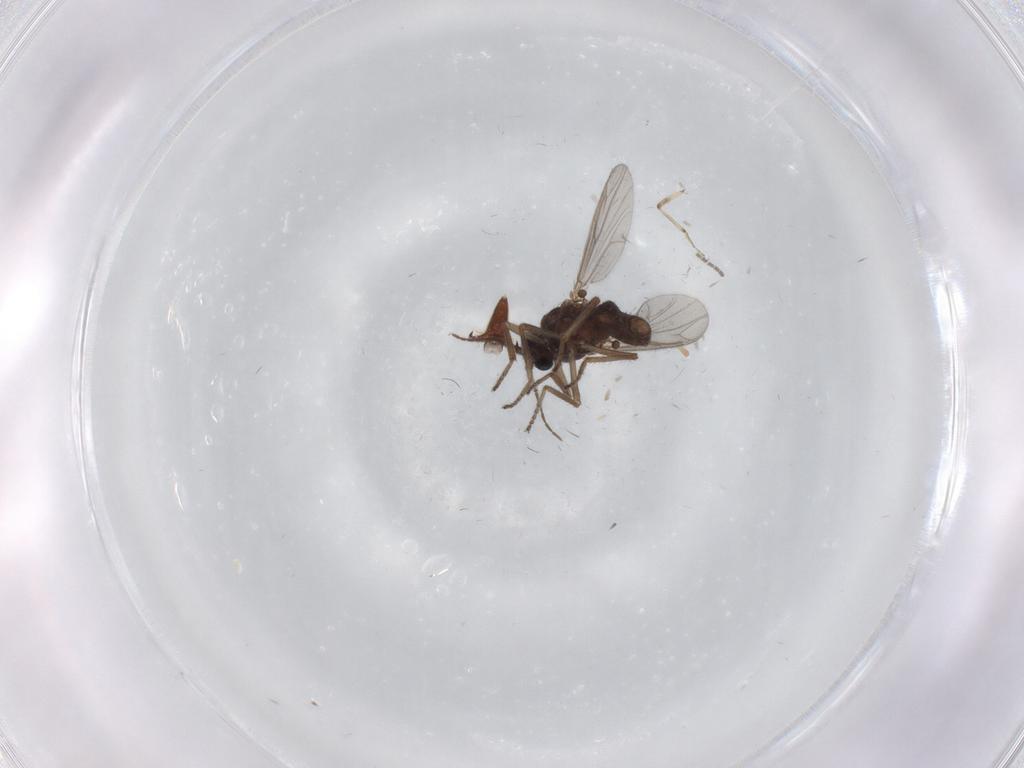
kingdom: Animalia
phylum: Arthropoda
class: Insecta
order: Diptera
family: Ceratopogonidae
